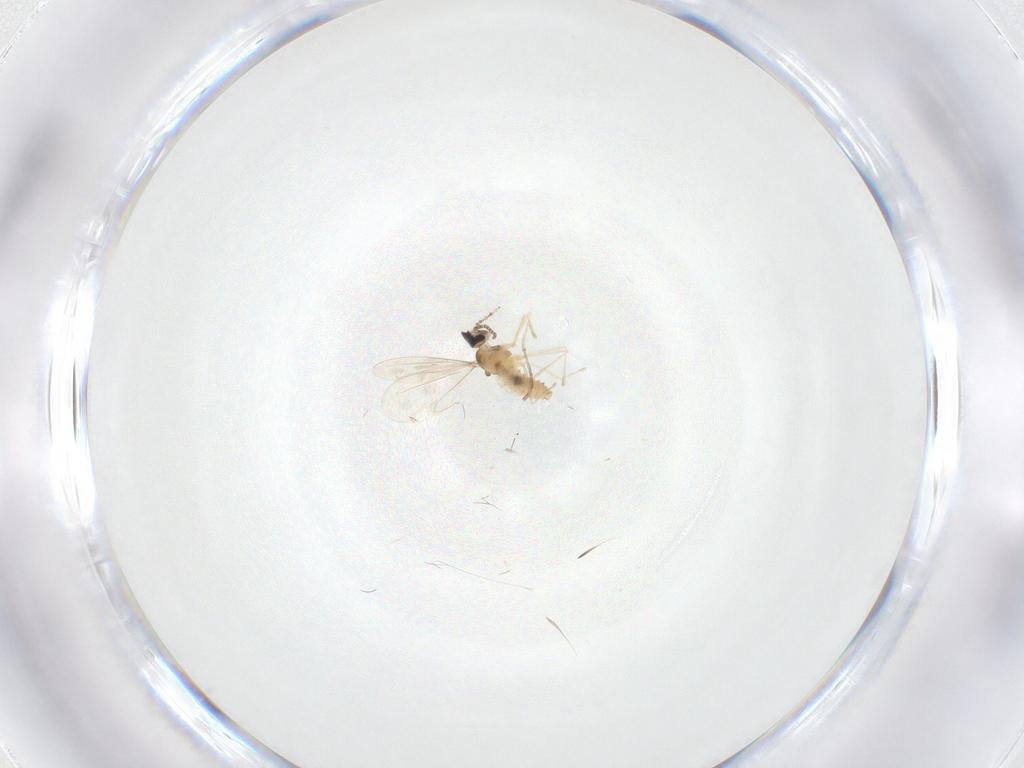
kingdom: Animalia
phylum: Arthropoda
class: Insecta
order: Diptera
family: Cecidomyiidae
